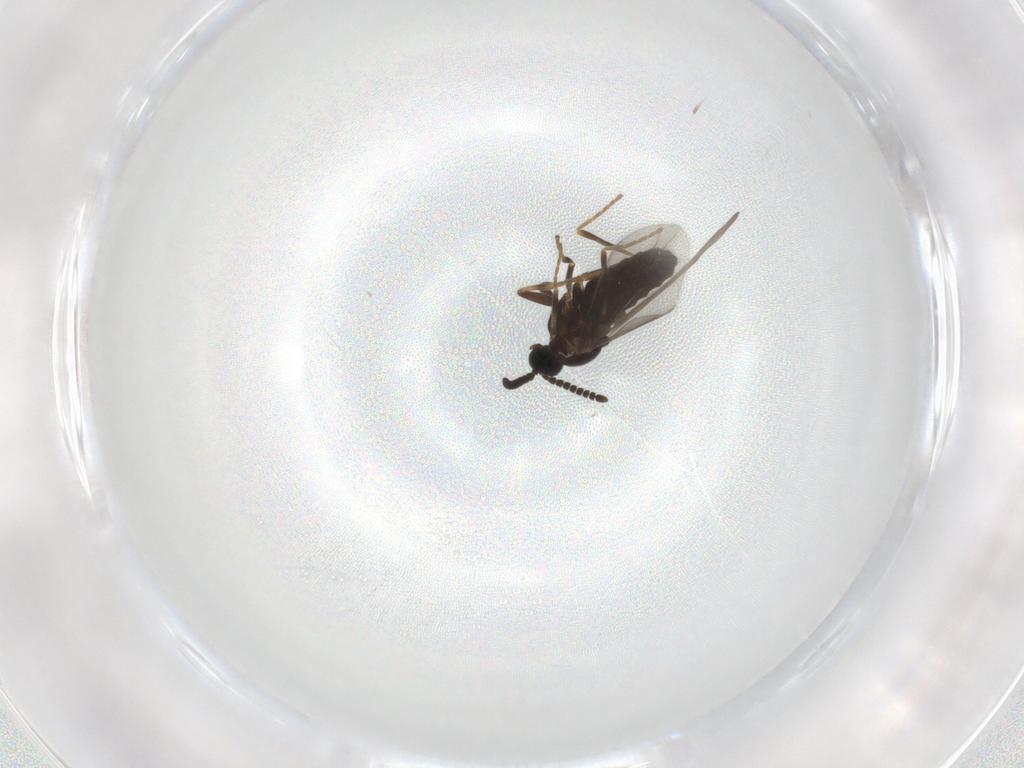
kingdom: Animalia
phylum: Arthropoda
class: Insecta
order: Diptera
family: Scatopsidae
